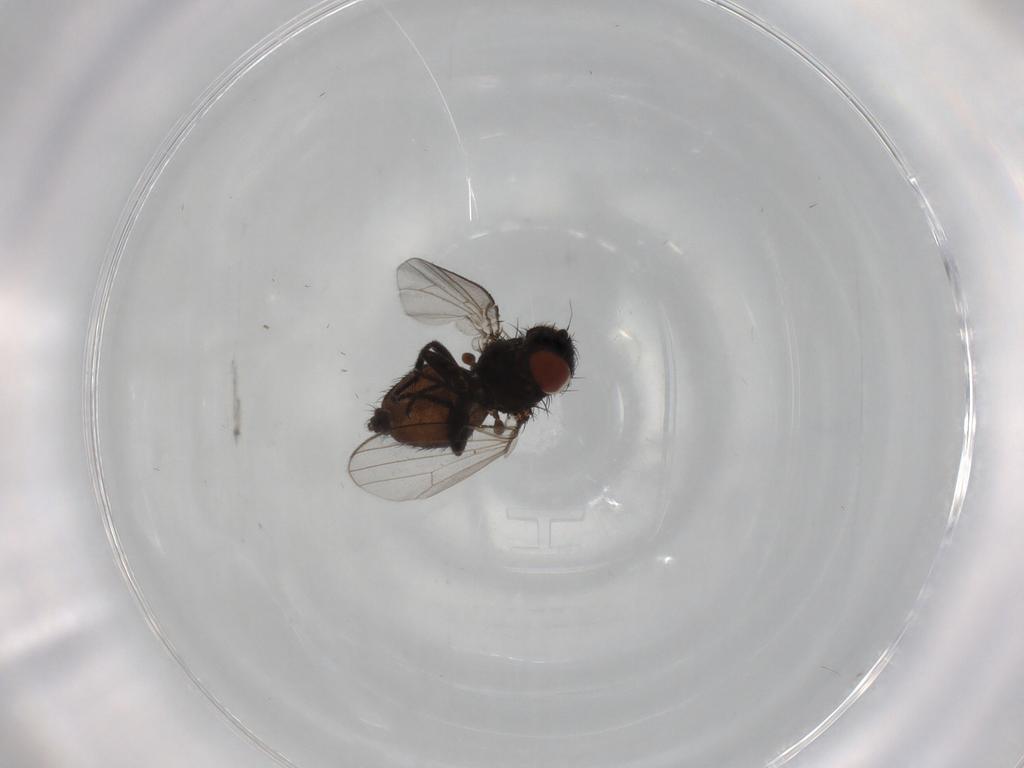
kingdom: Animalia
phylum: Arthropoda
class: Insecta
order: Diptera
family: Milichiidae
